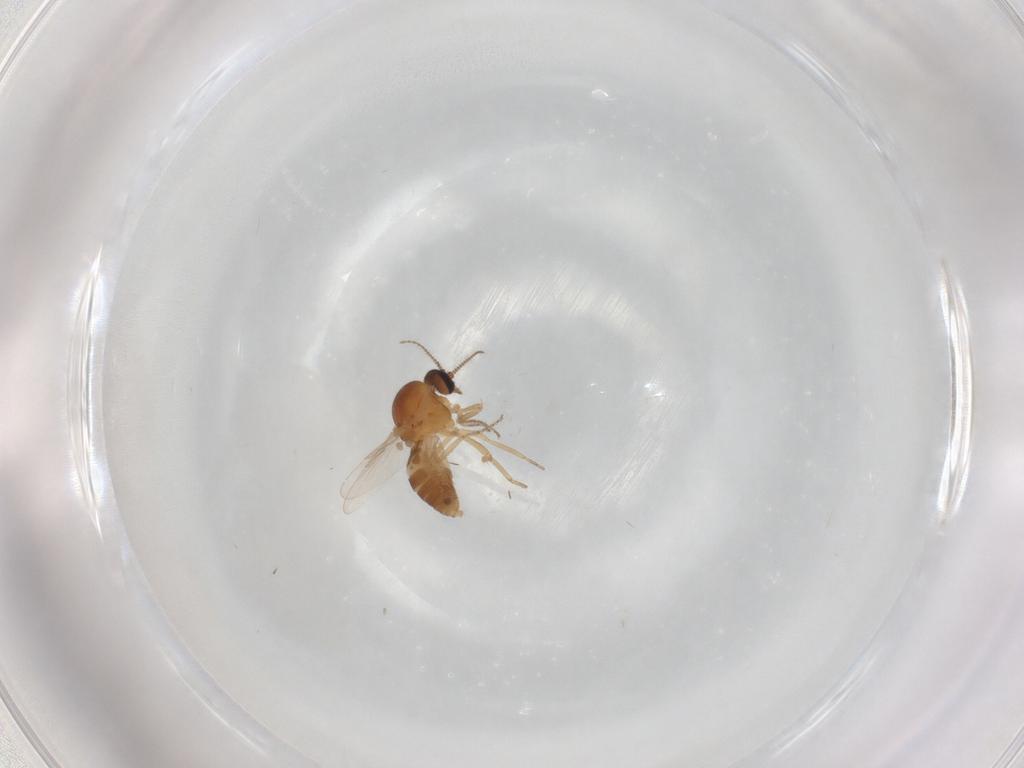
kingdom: Animalia
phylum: Arthropoda
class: Insecta
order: Diptera
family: Ceratopogonidae
